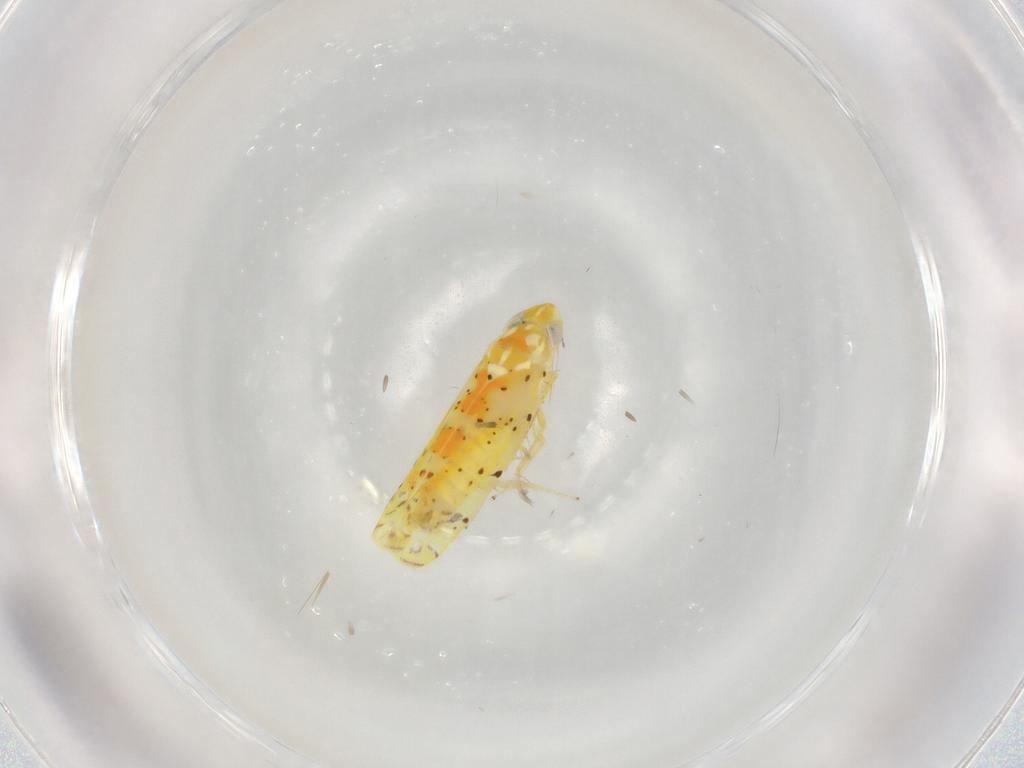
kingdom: Animalia
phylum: Arthropoda
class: Insecta
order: Hemiptera
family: Cicadellidae
